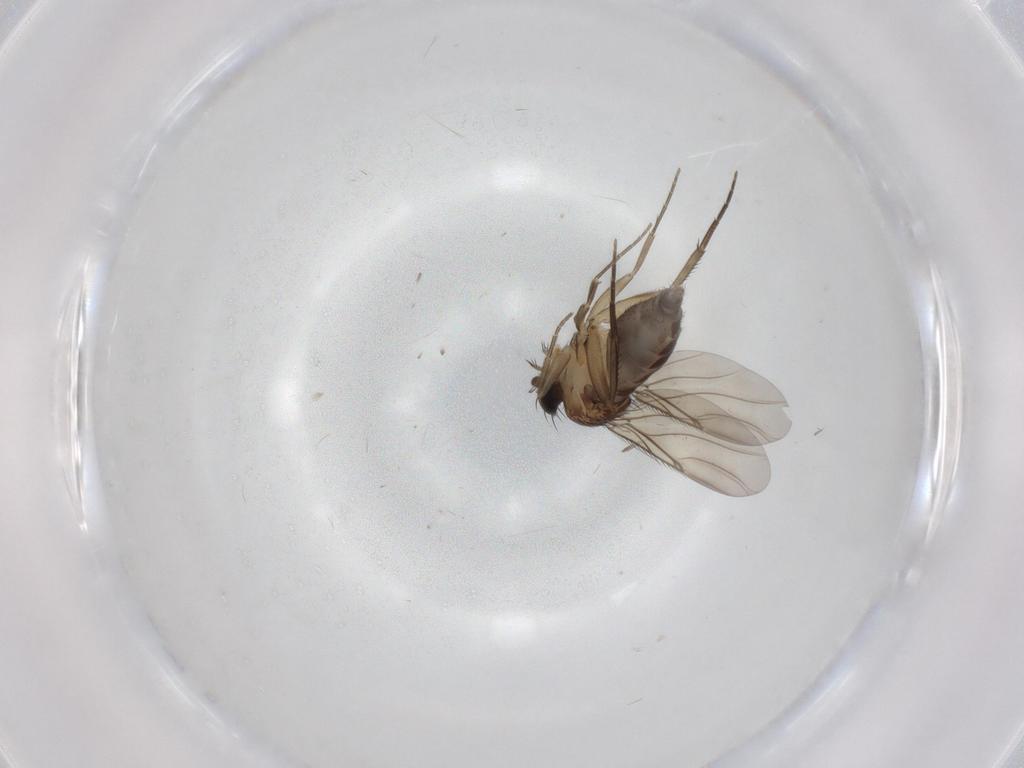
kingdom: Animalia
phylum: Arthropoda
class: Insecta
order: Diptera
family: Phoridae
